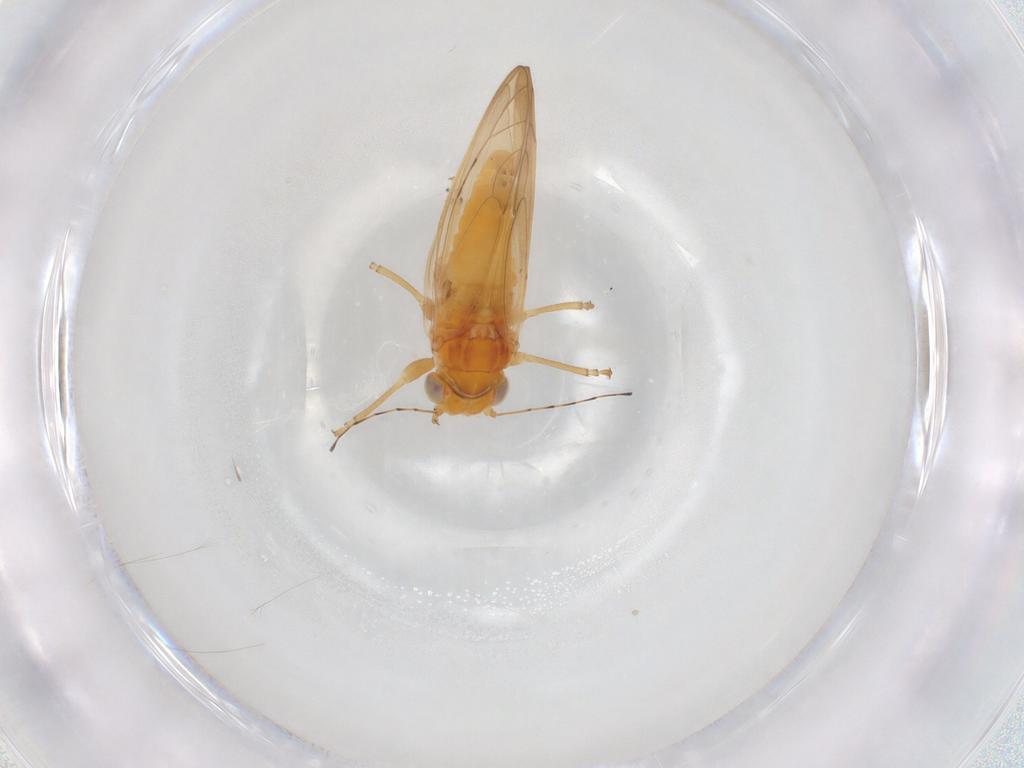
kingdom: Animalia
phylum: Arthropoda
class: Insecta
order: Hemiptera
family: Psylloidea_incertae_sedis
